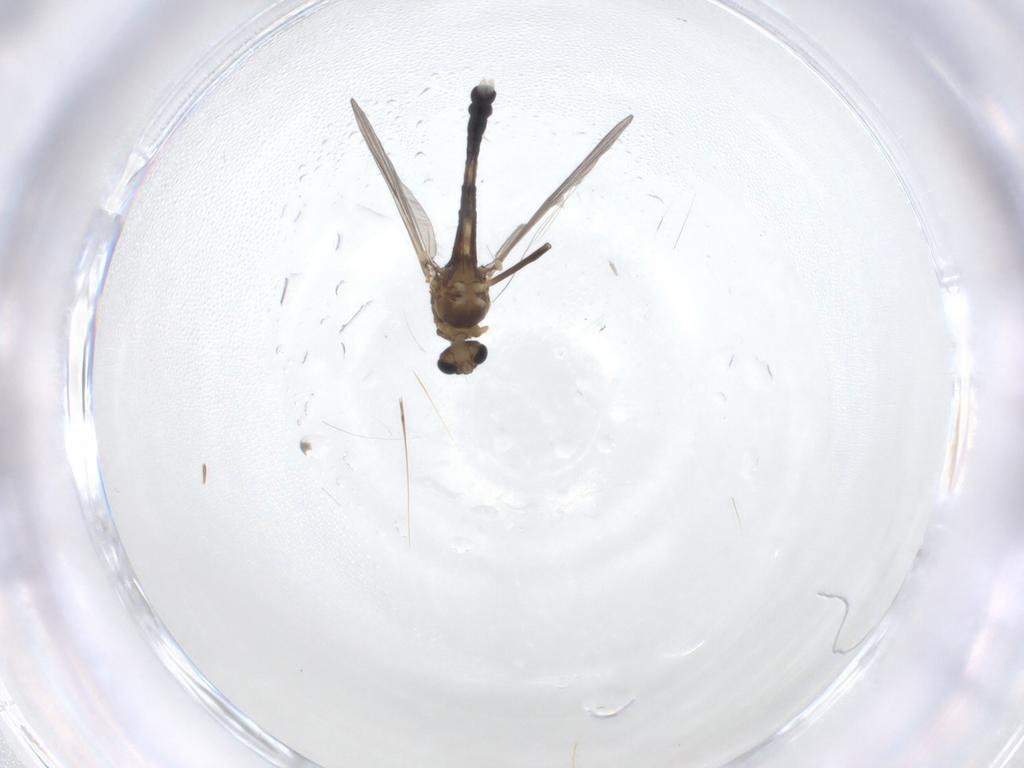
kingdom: Animalia
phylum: Arthropoda
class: Insecta
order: Diptera
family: Chironomidae
